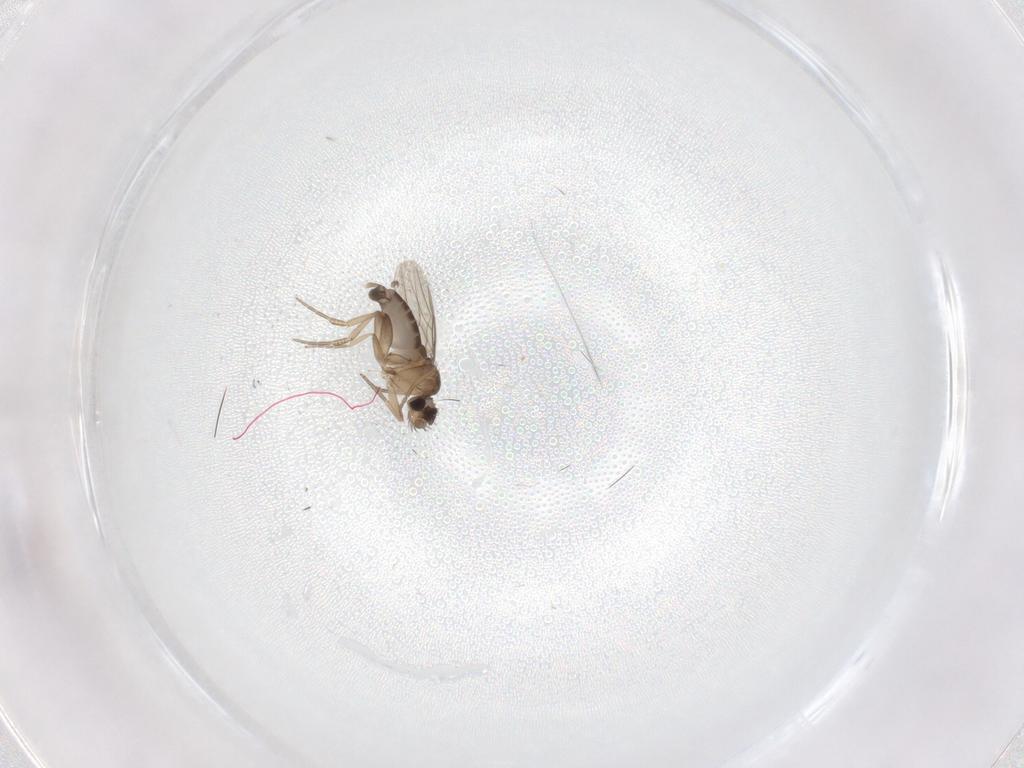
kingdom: Animalia
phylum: Arthropoda
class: Insecta
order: Diptera
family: Phoridae
